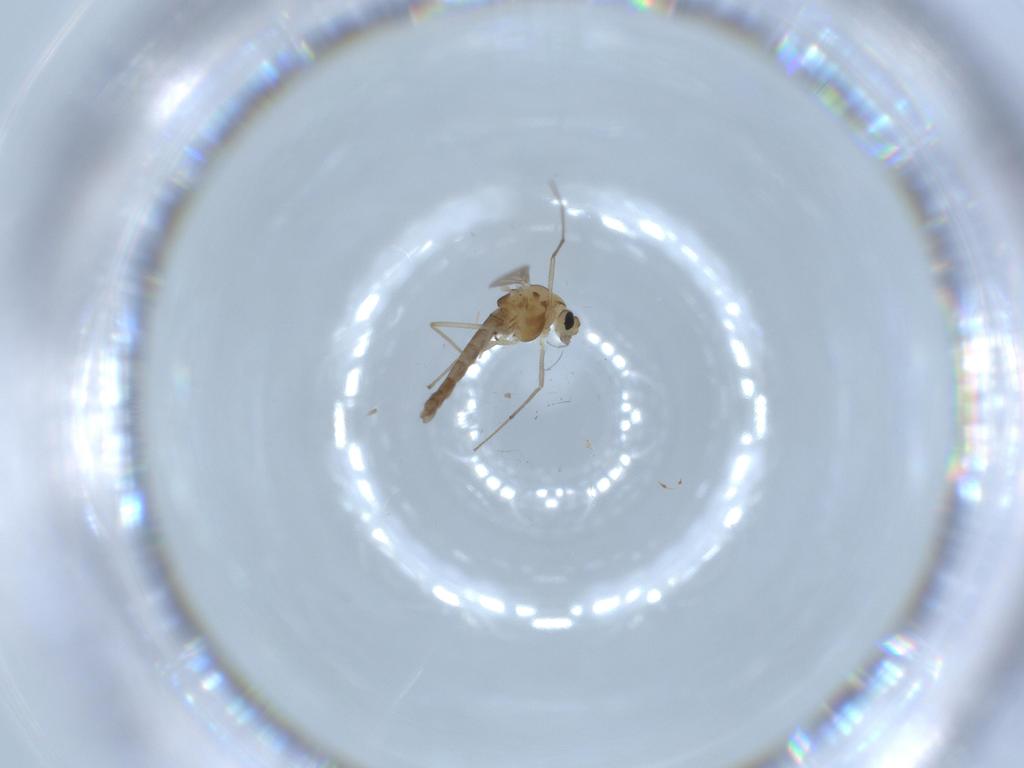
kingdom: Animalia
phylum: Arthropoda
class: Insecta
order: Diptera
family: Chironomidae
